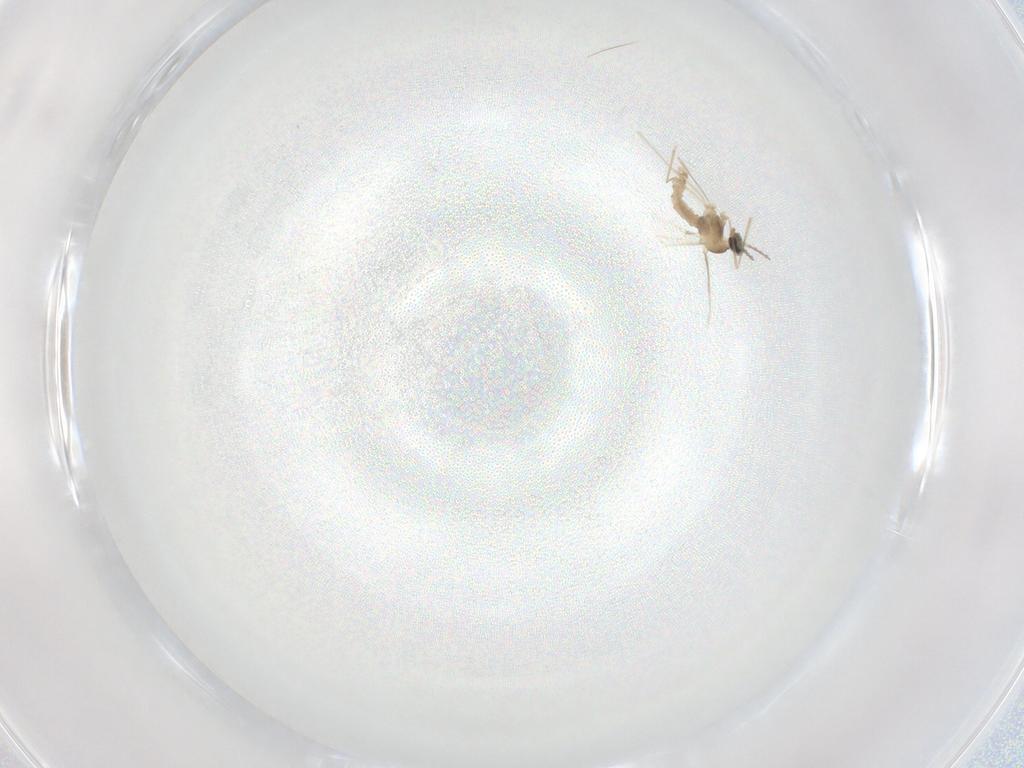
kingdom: Animalia
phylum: Arthropoda
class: Insecta
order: Diptera
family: Cecidomyiidae
